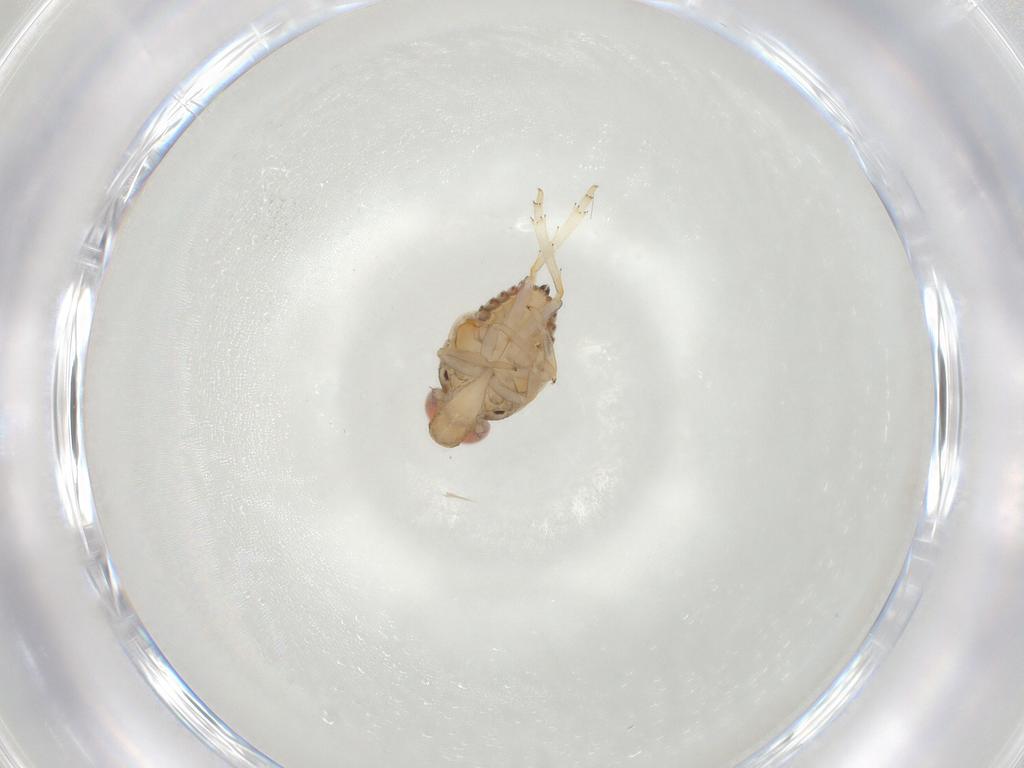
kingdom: Animalia
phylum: Arthropoda
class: Insecta
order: Hemiptera
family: Issidae
